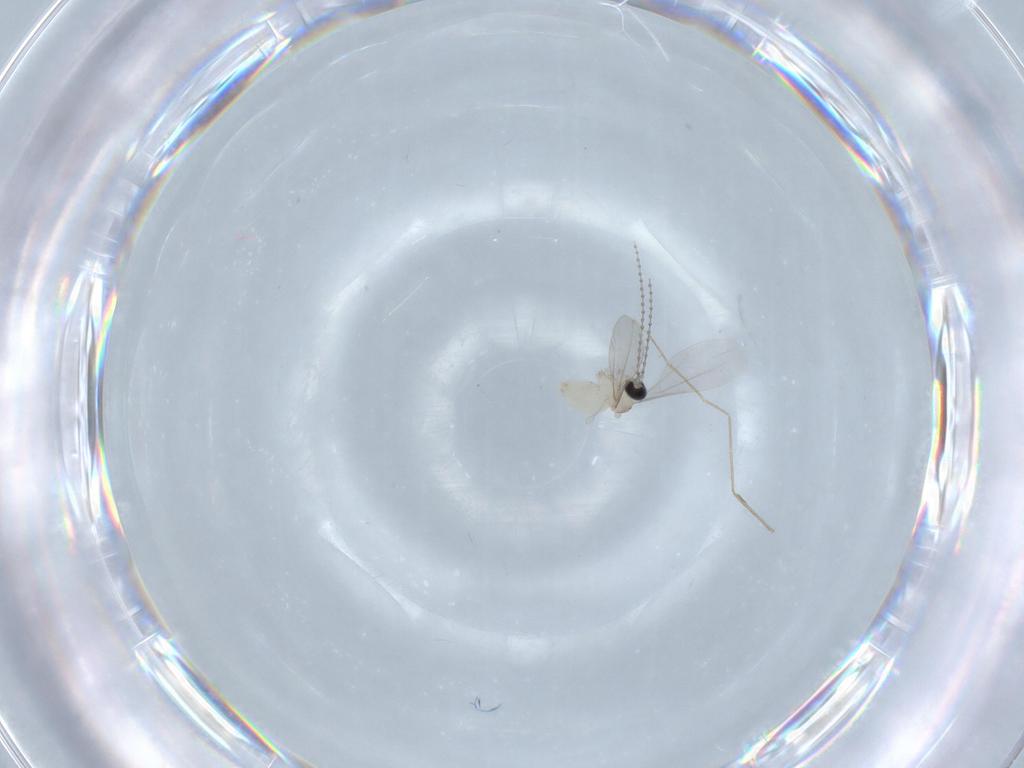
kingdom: Animalia
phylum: Arthropoda
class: Insecta
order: Diptera
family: Cecidomyiidae
